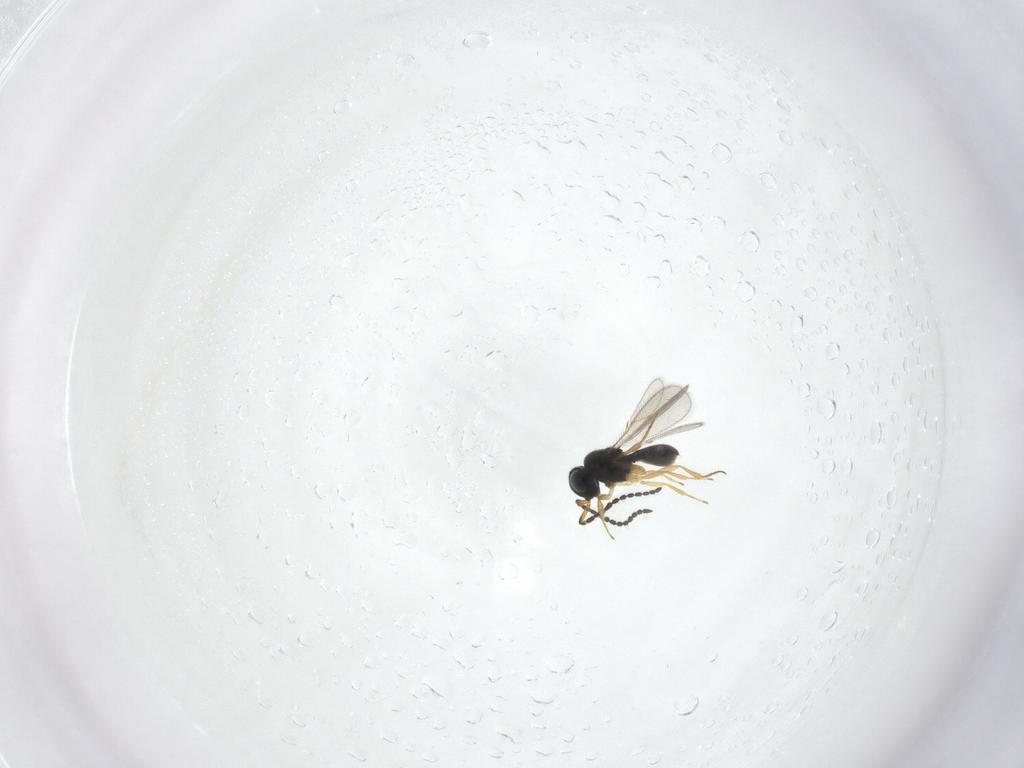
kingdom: Animalia
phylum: Arthropoda
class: Insecta
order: Hymenoptera
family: Scelionidae
